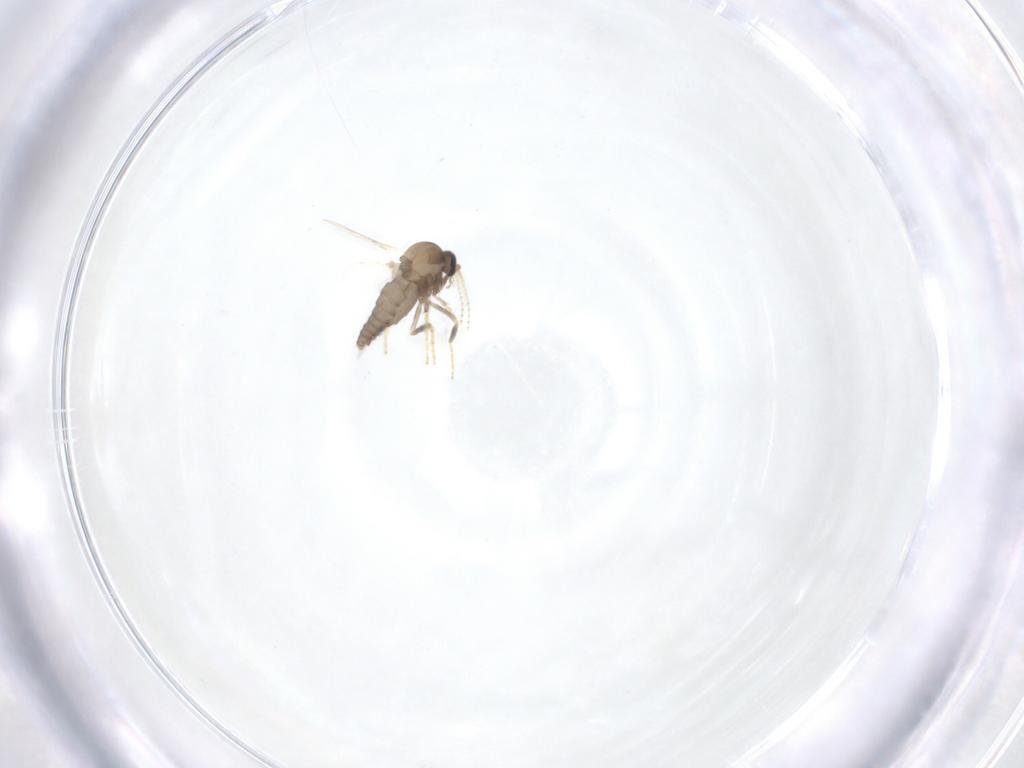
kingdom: Animalia
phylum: Arthropoda
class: Insecta
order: Diptera
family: Ceratopogonidae
